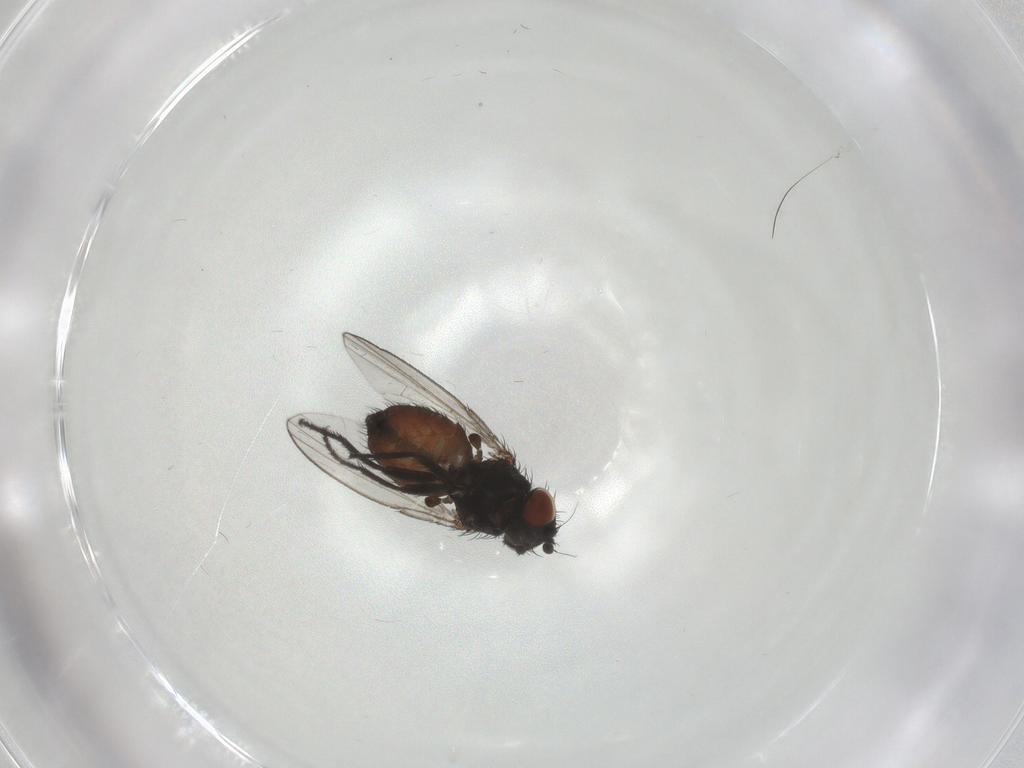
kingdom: Animalia
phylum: Arthropoda
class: Insecta
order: Diptera
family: Milichiidae
